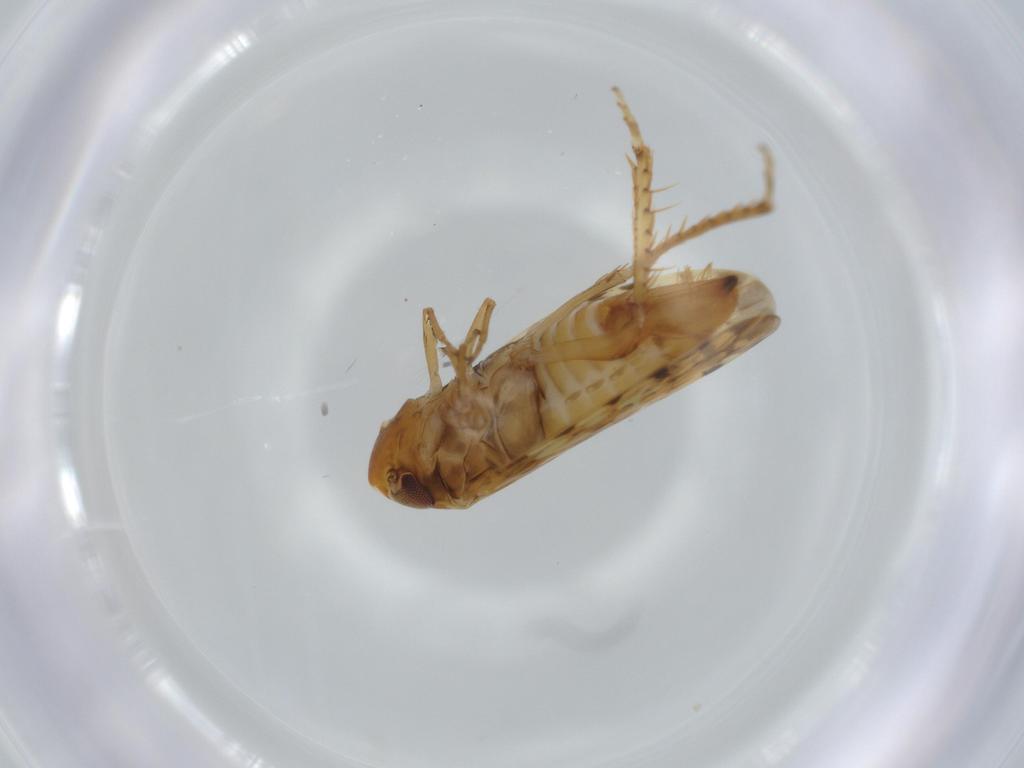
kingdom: Animalia
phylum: Arthropoda
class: Insecta
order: Hemiptera
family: Cicadellidae
